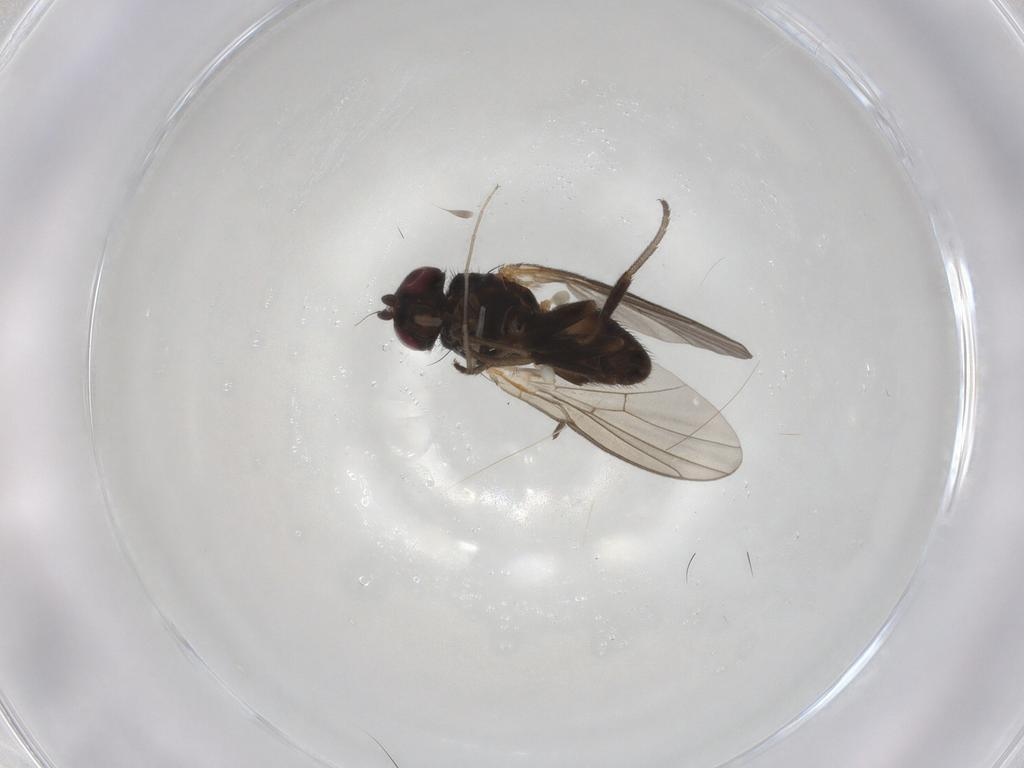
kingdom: Animalia
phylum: Arthropoda
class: Insecta
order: Diptera
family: Agromyzidae
